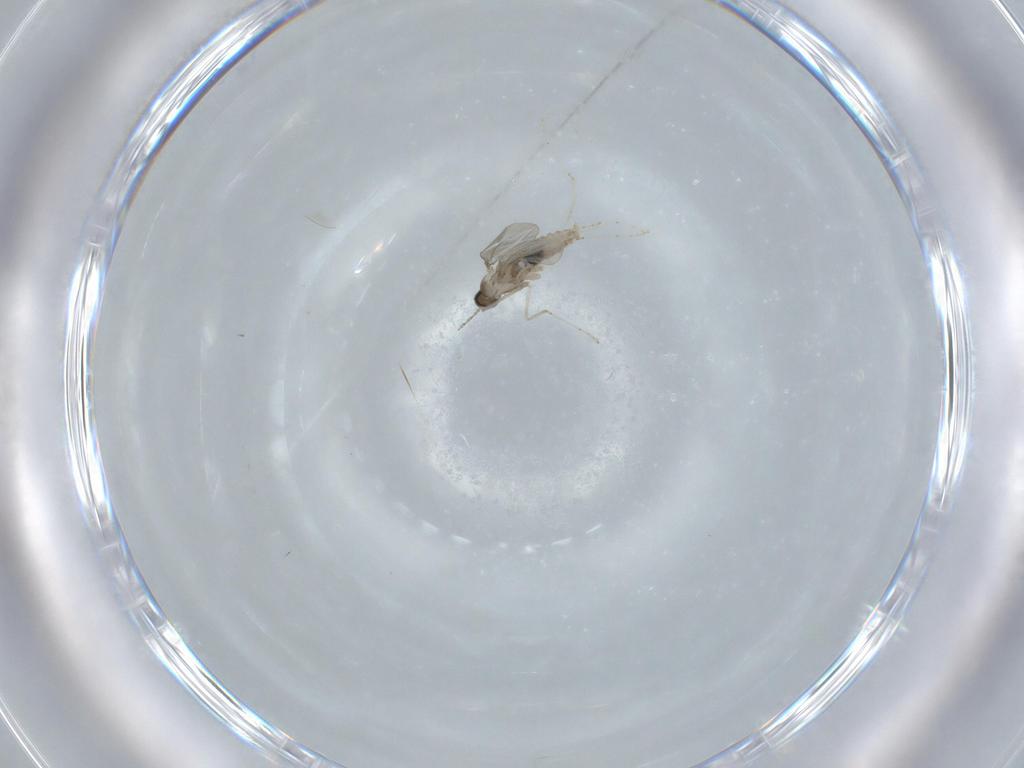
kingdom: Animalia
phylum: Arthropoda
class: Insecta
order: Diptera
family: Cecidomyiidae
